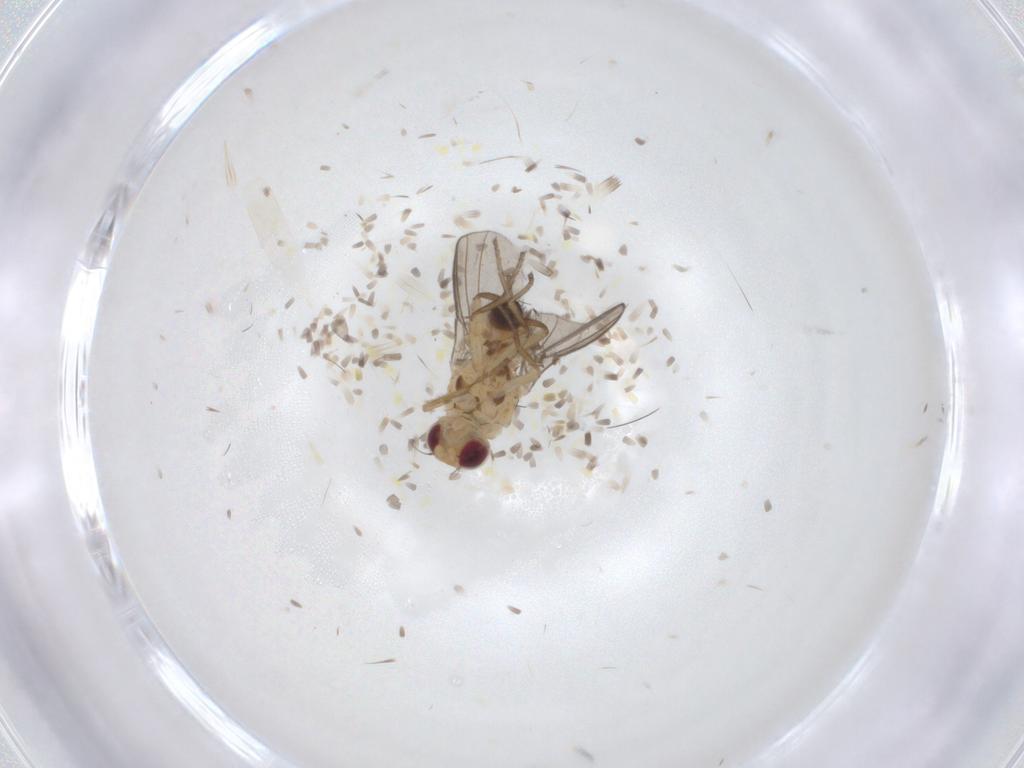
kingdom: Animalia
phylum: Arthropoda
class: Insecta
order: Diptera
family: Agromyzidae
